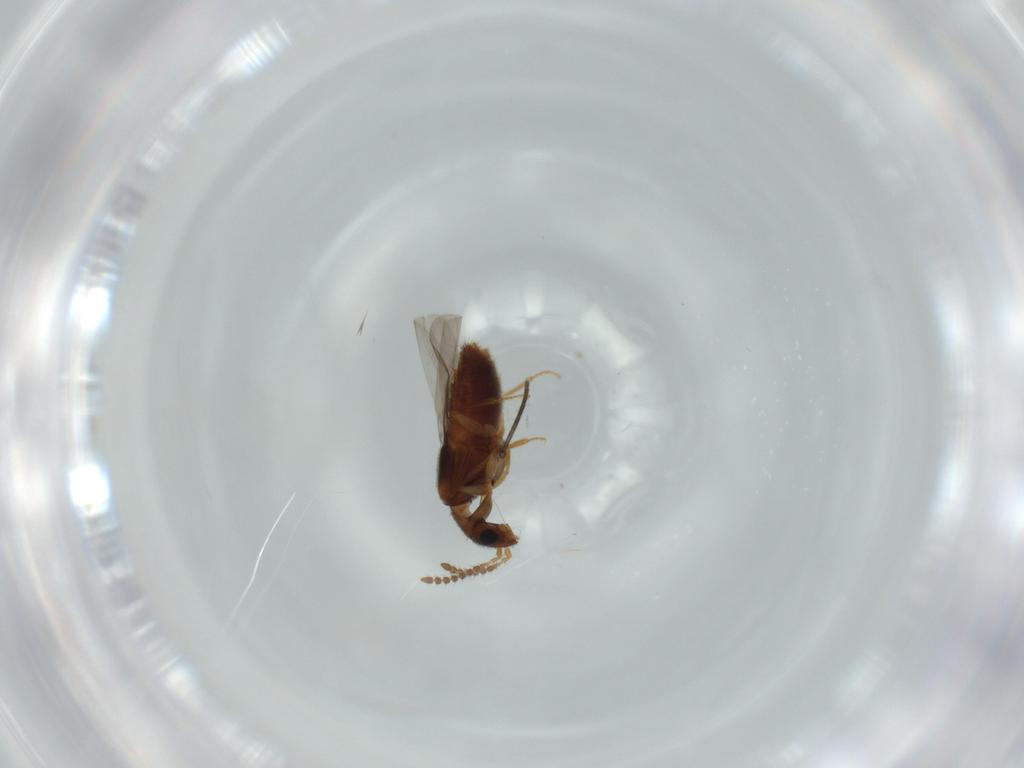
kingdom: Animalia
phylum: Arthropoda
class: Insecta
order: Coleoptera
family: Staphylinidae
